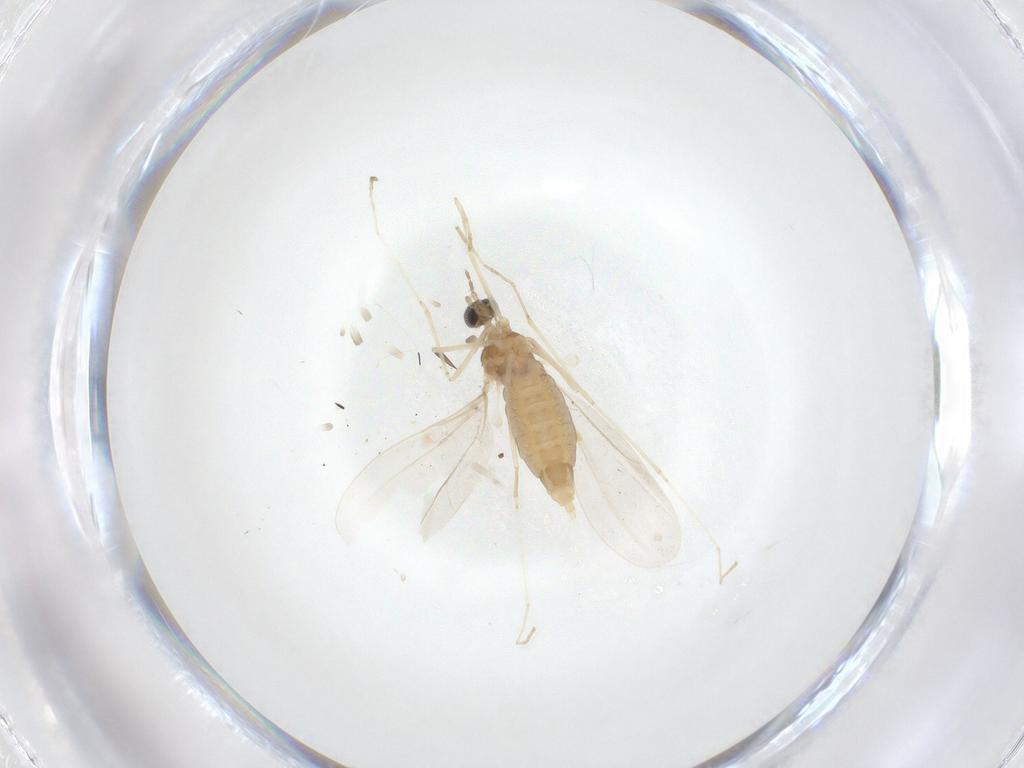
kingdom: Animalia
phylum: Arthropoda
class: Insecta
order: Diptera
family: Cecidomyiidae
